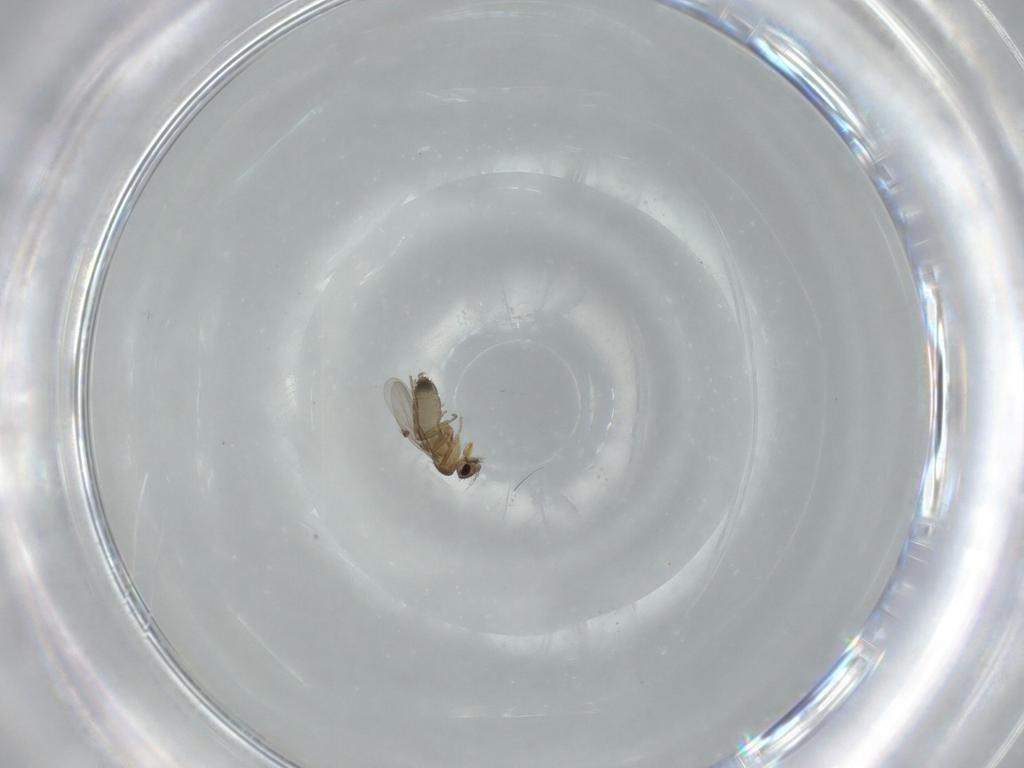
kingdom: Animalia
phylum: Arthropoda
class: Insecta
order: Diptera
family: Phoridae
